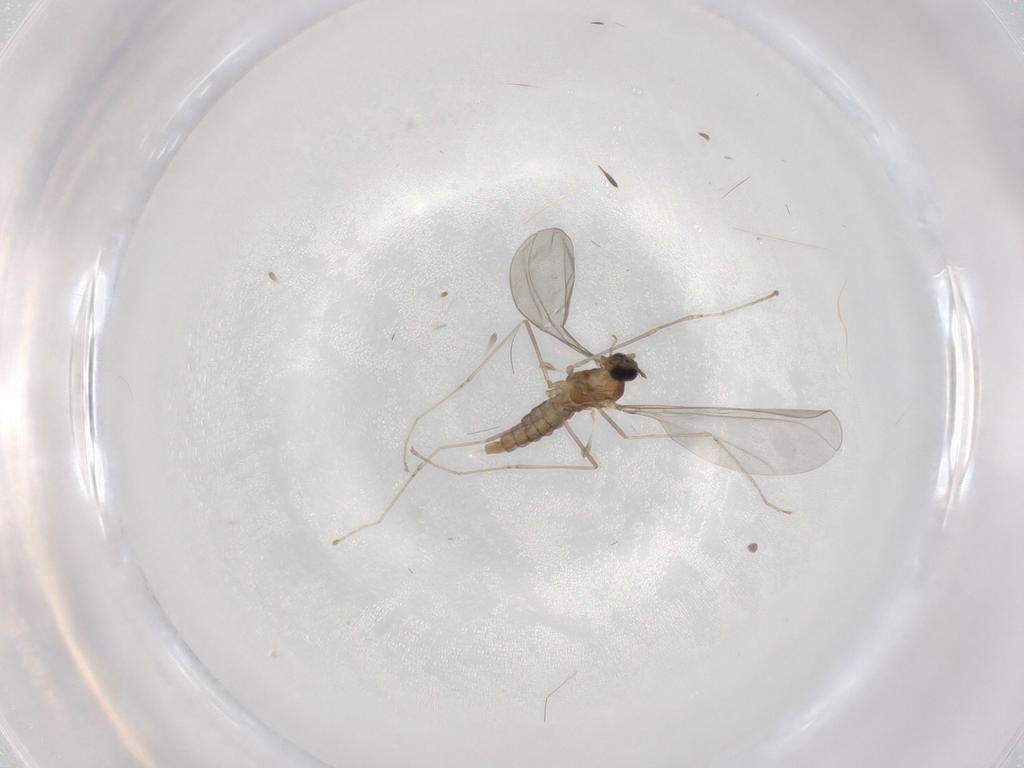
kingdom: Animalia
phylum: Arthropoda
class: Insecta
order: Diptera
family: Cecidomyiidae
